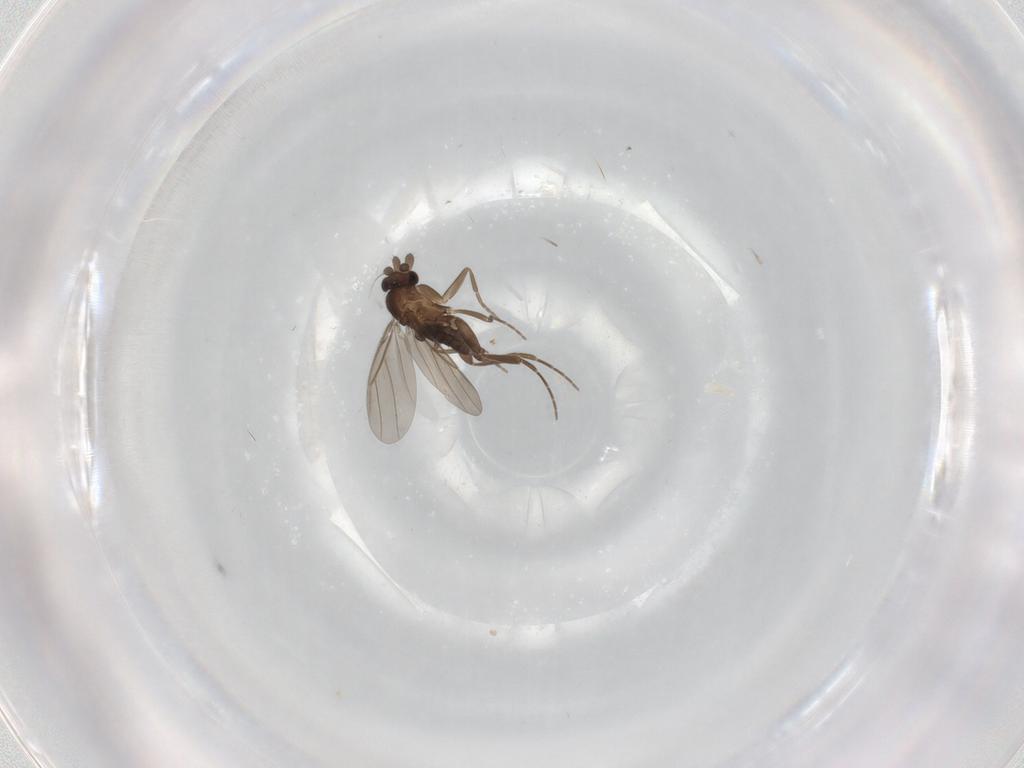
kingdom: Animalia
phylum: Arthropoda
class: Insecta
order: Diptera
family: Phoridae
